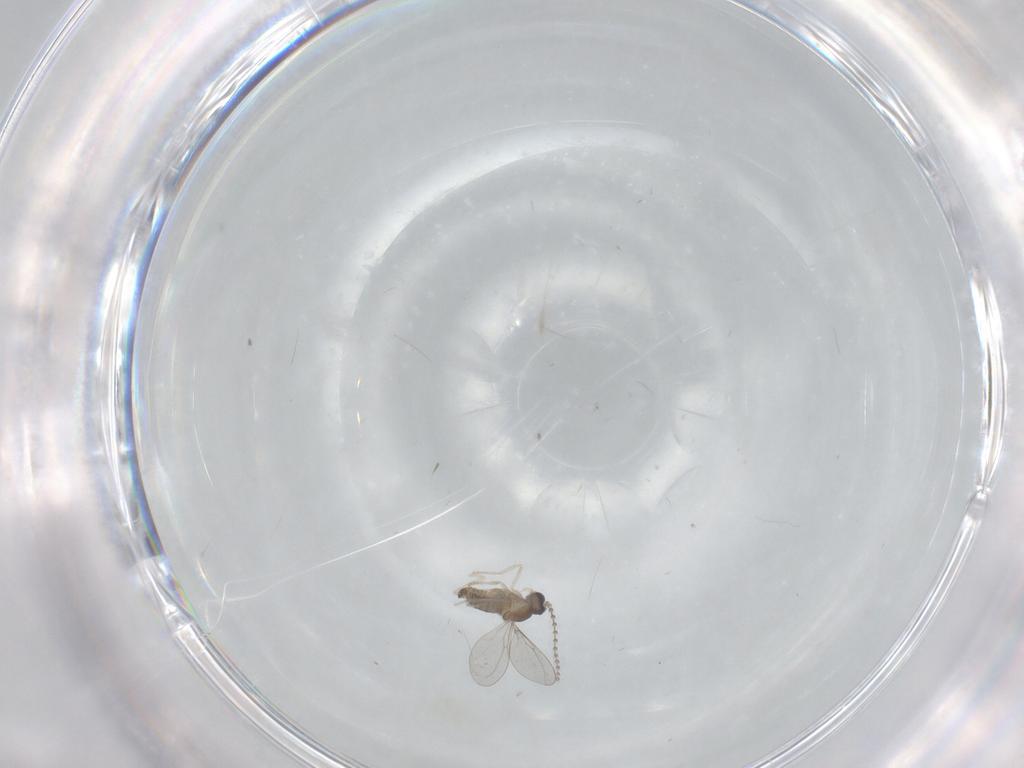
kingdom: Animalia
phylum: Arthropoda
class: Insecta
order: Diptera
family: Cecidomyiidae
